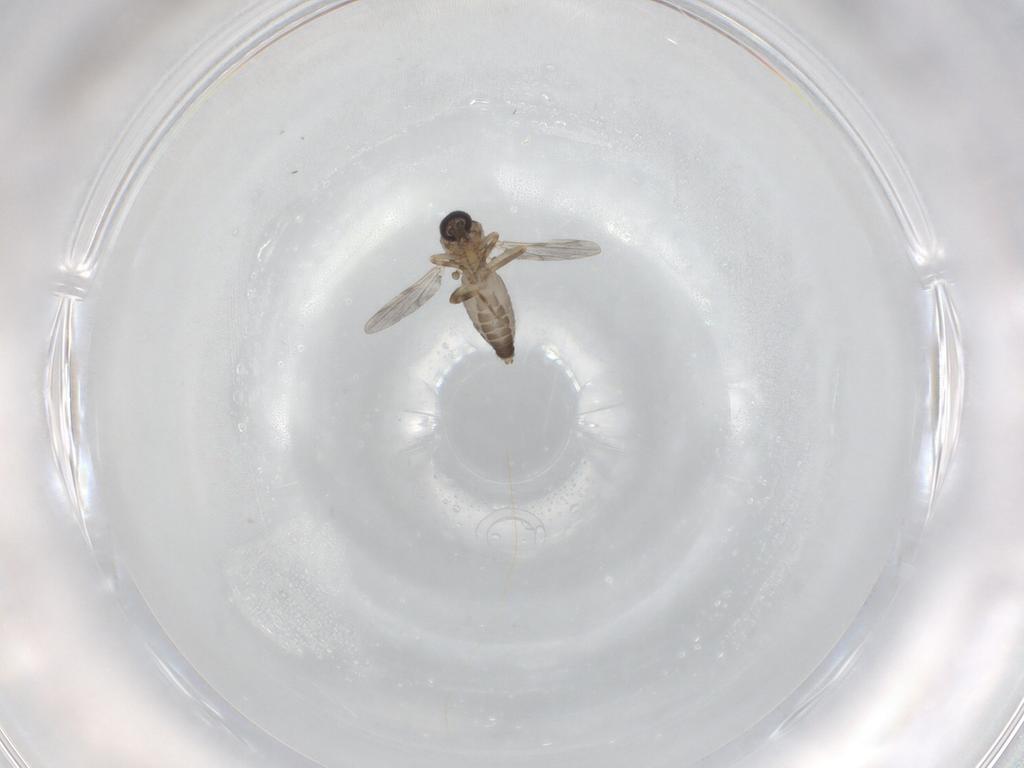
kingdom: Animalia
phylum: Arthropoda
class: Insecta
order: Diptera
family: Ceratopogonidae
